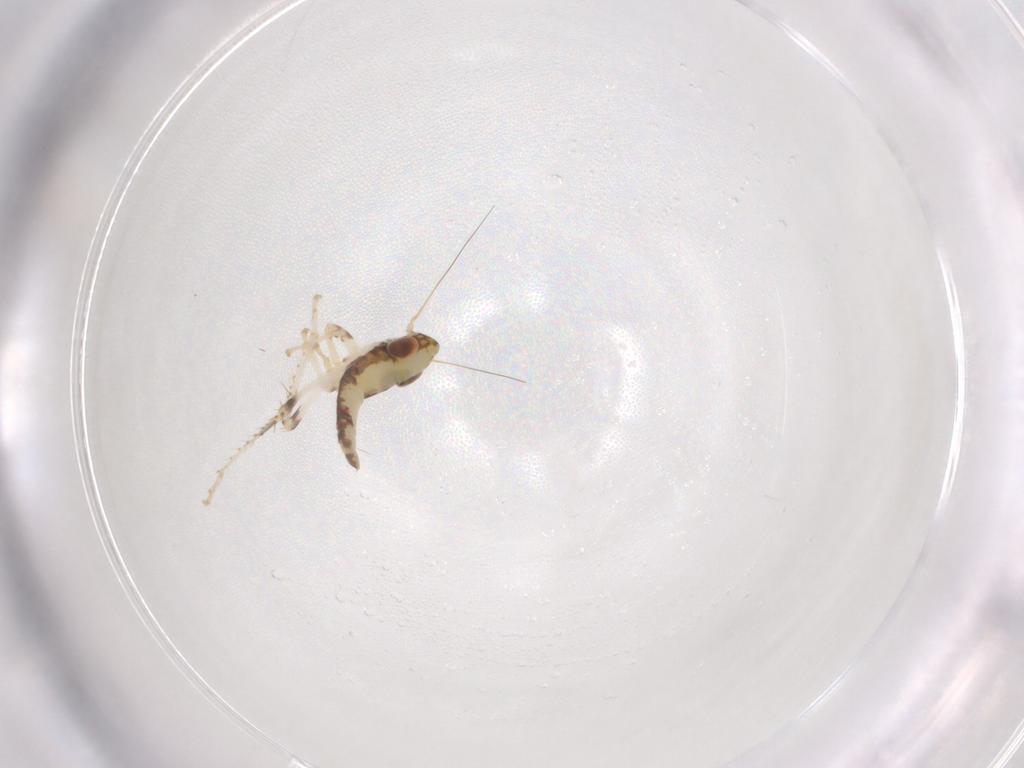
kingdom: Animalia
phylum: Arthropoda
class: Insecta
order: Hemiptera
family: Cicadellidae
